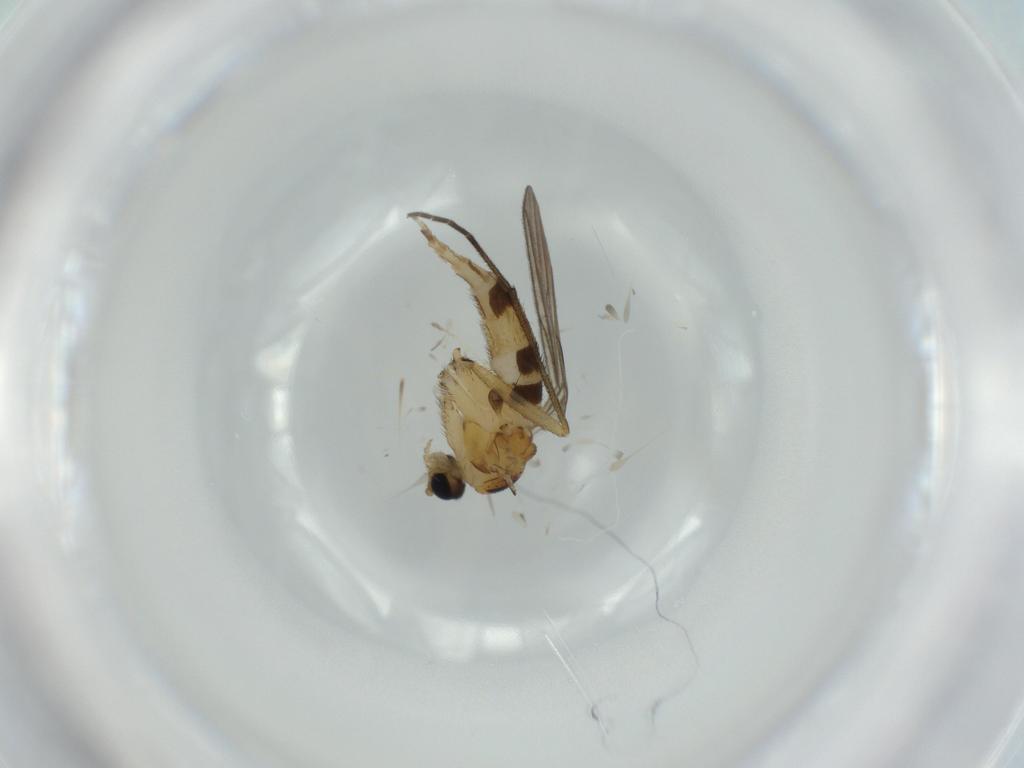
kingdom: Animalia
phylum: Arthropoda
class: Insecta
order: Diptera
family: Sciaridae
